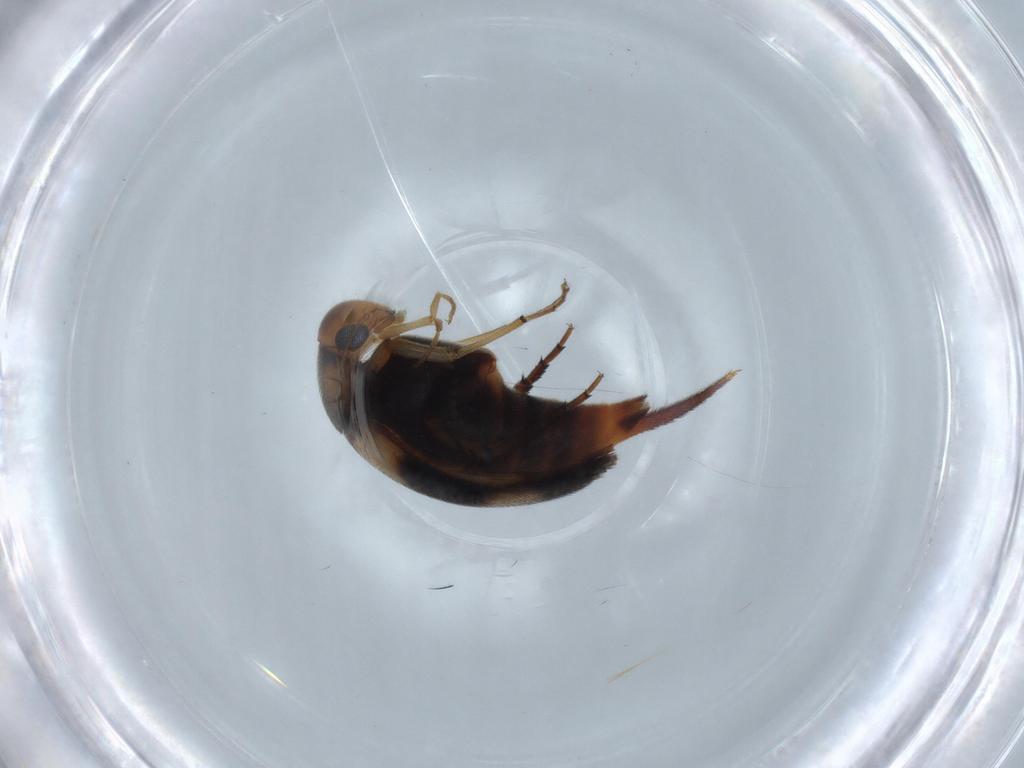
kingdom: Animalia
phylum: Arthropoda
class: Insecta
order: Coleoptera
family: Mordellidae
